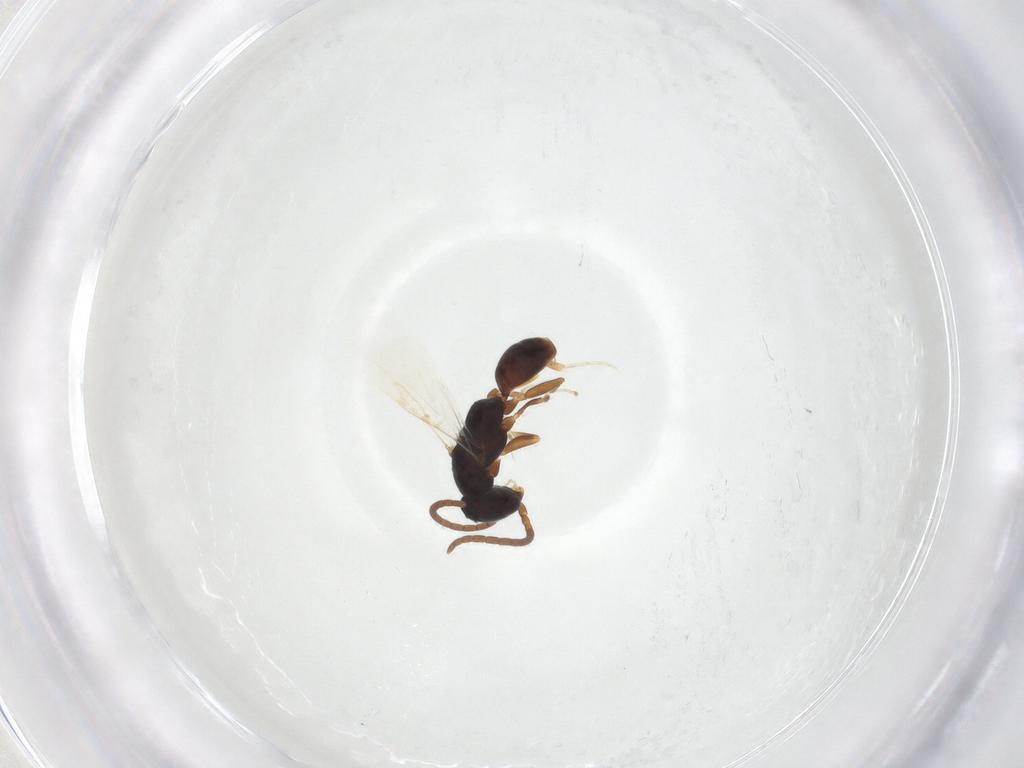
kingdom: Animalia
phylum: Arthropoda
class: Insecta
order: Hymenoptera
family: Bethylidae
